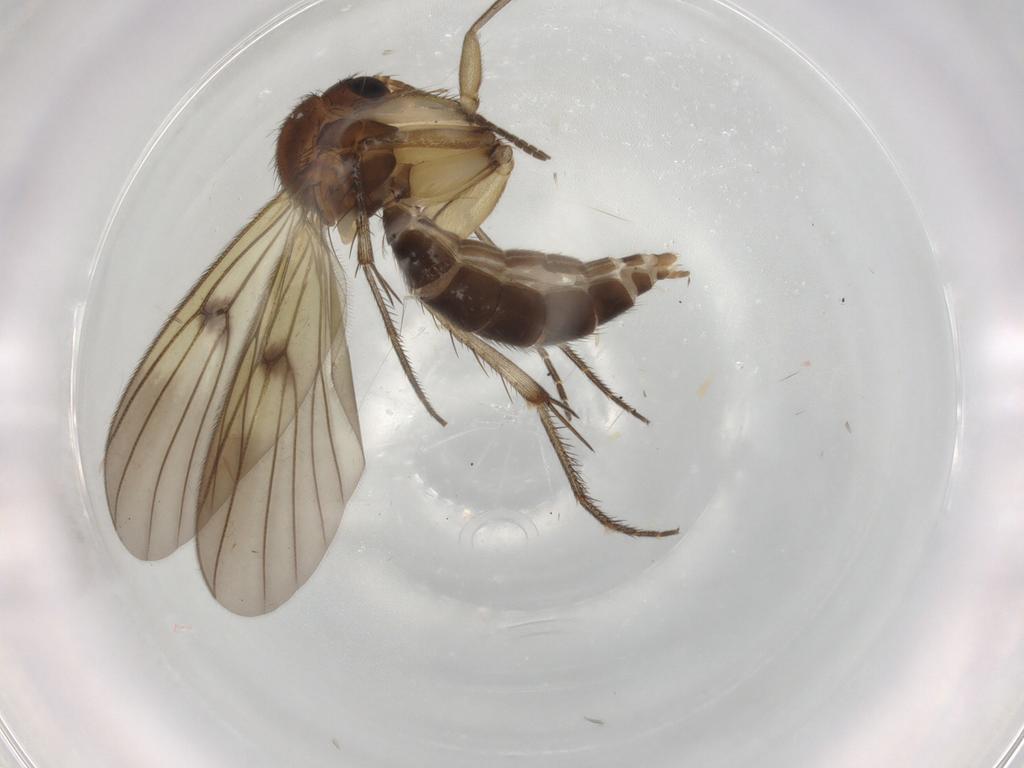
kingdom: Animalia
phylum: Arthropoda
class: Insecta
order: Diptera
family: Chironomidae
